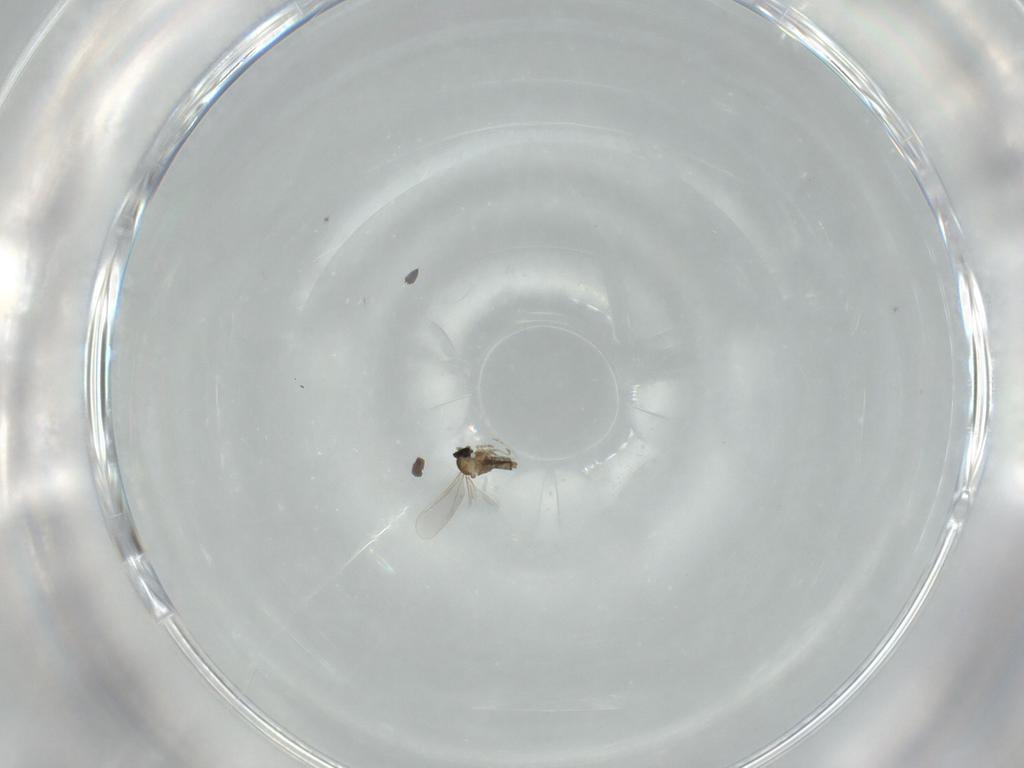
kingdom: Animalia
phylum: Arthropoda
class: Insecta
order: Diptera
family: Cecidomyiidae
